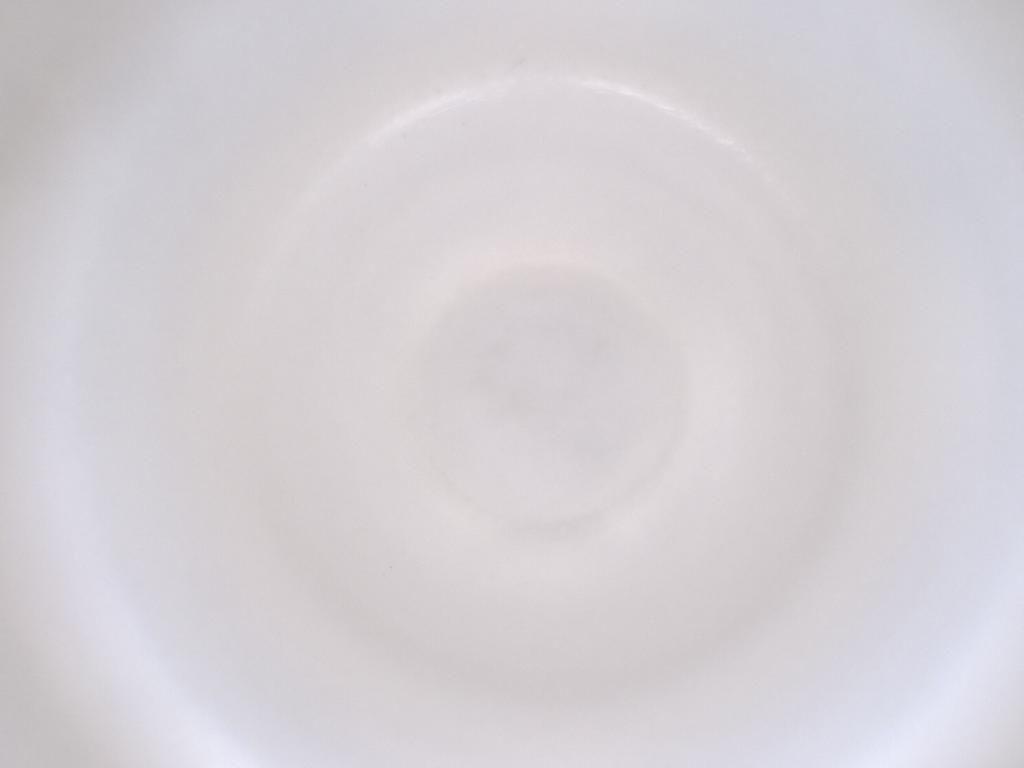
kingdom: Animalia
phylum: Arthropoda
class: Insecta
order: Diptera
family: Cecidomyiidae
